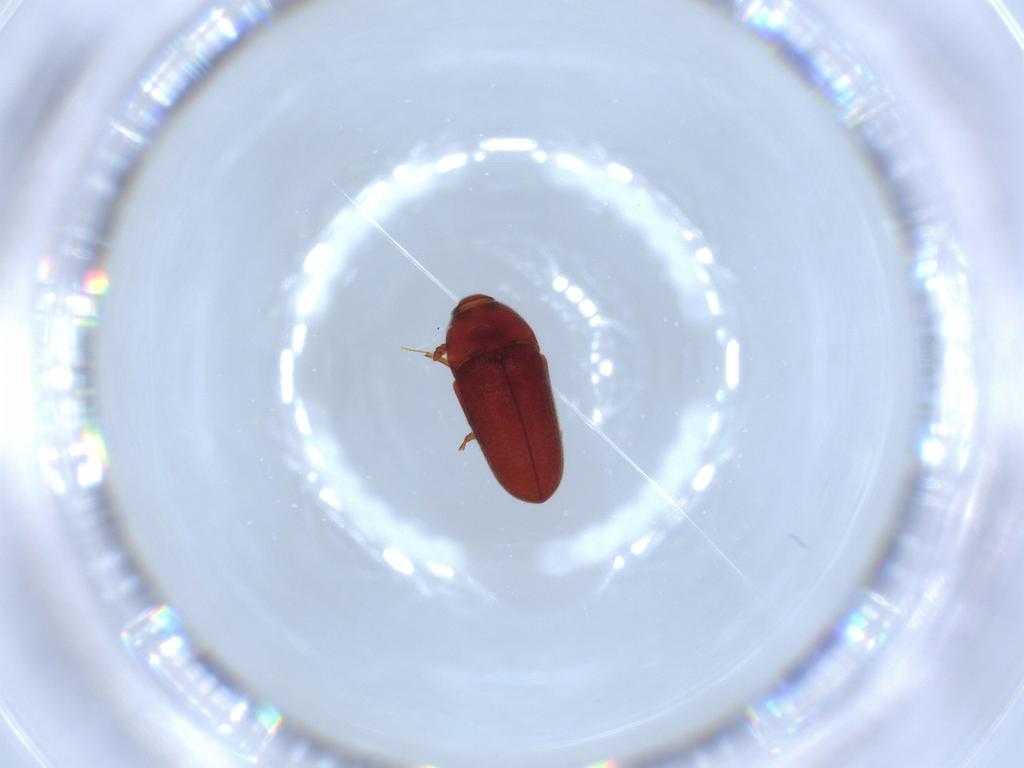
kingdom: Animalia
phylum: Arthropoda
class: Insecta
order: Coleoptera
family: Throscidae
